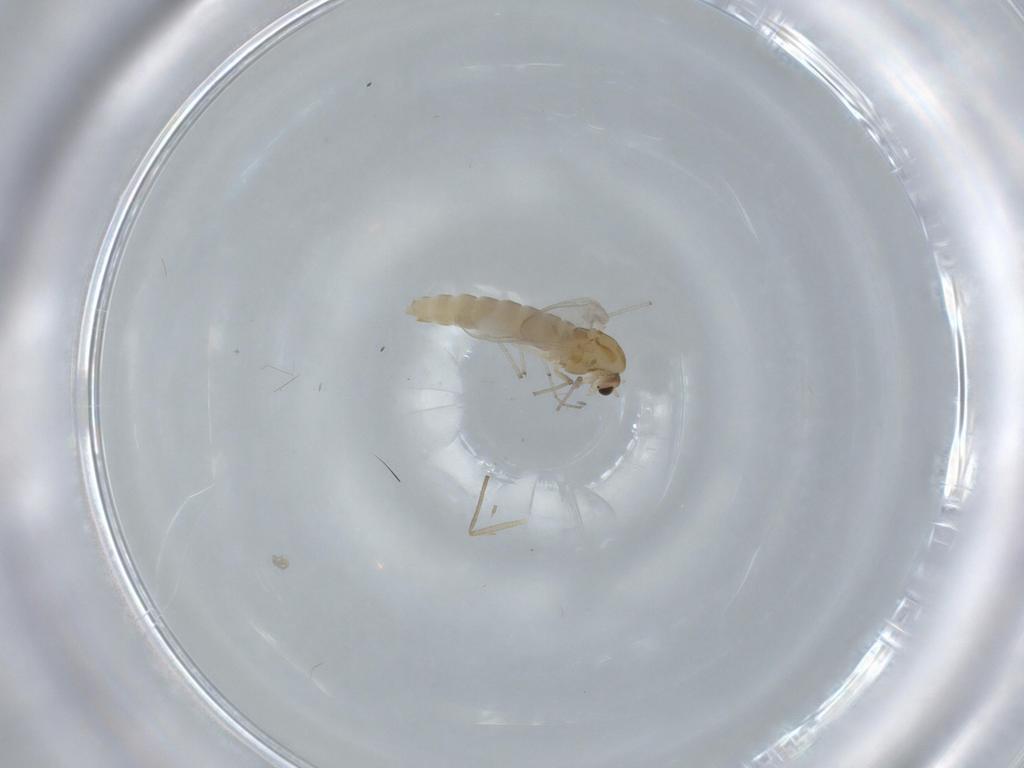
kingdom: Animalia
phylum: Arthropoda
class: Insecta
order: Diptera
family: Chironomidae
